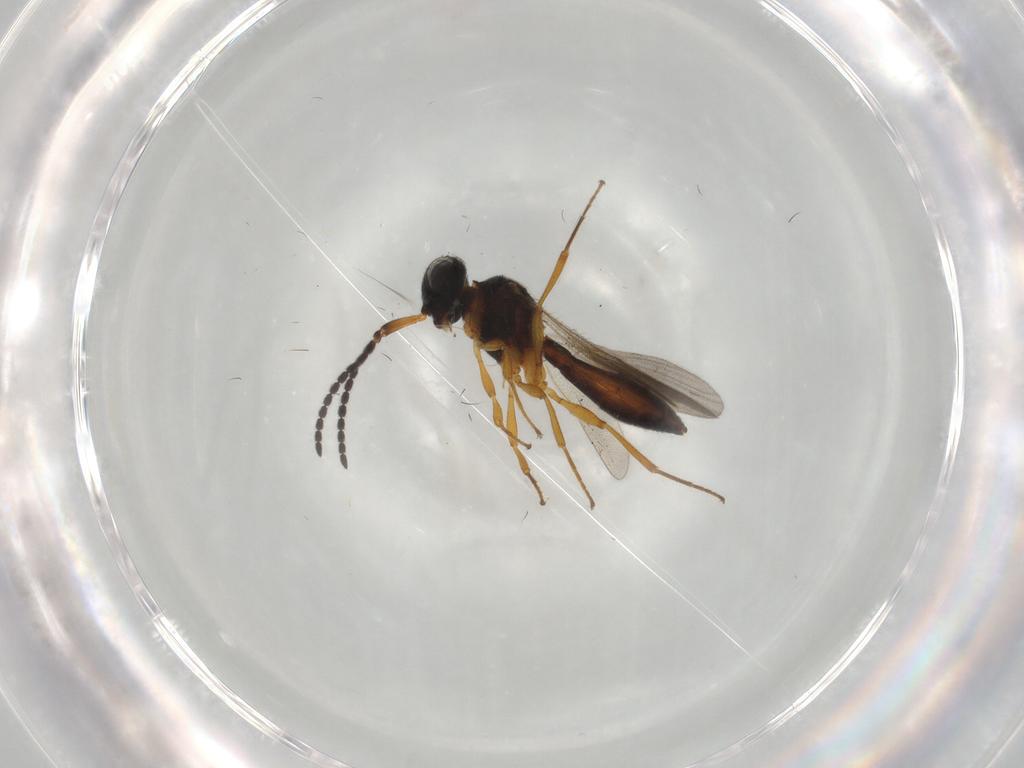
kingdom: Animalia
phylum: Arthropoda
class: Insecta
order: Hymenoptera
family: Scelionidae
